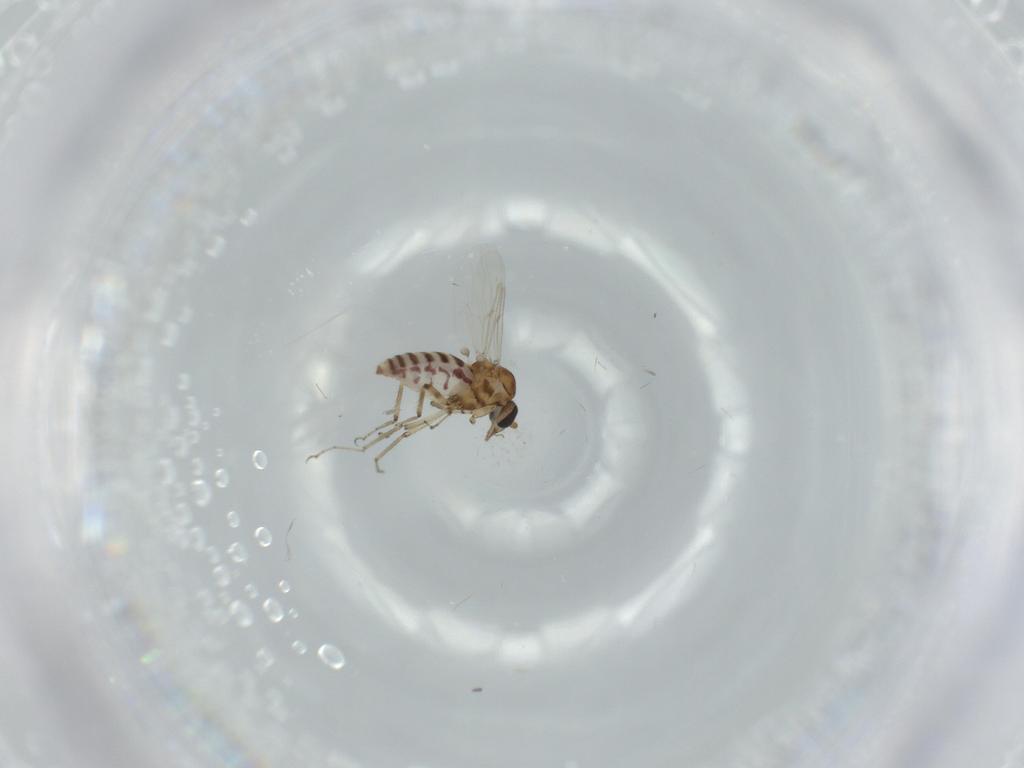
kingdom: Animalia
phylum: Arthropoda
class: Insecta
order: Diptera
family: Ceratopogonidae
